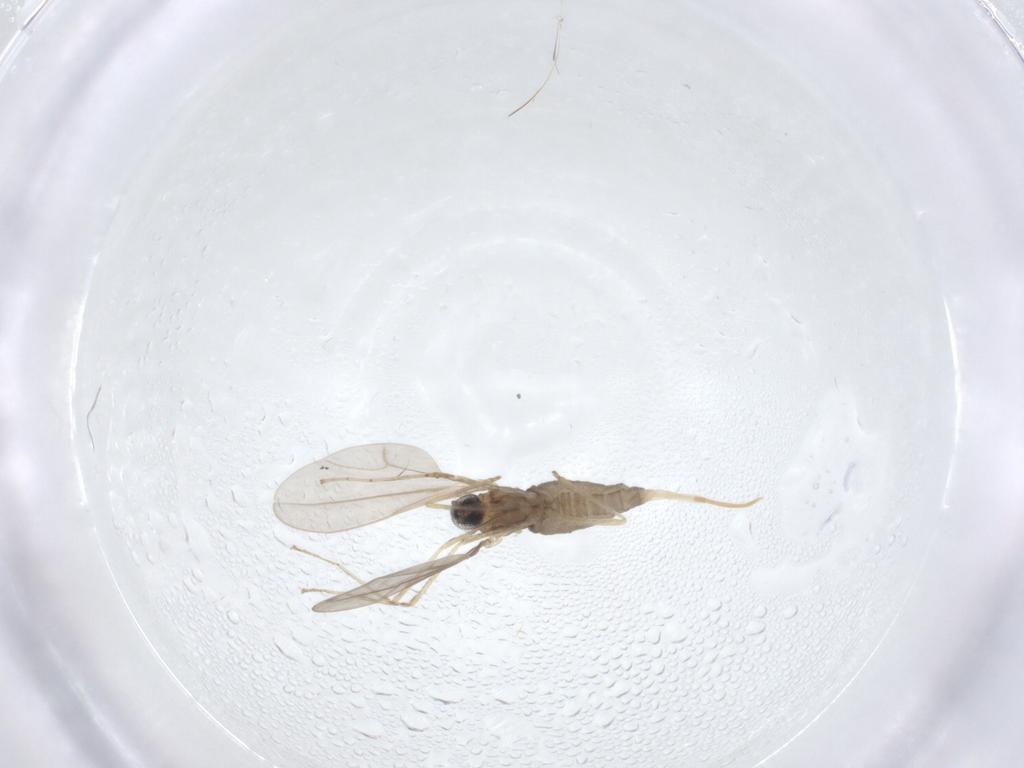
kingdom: Animalia
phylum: Arthropoda
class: Insecta
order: Diptera
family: Cecidomyiidae
